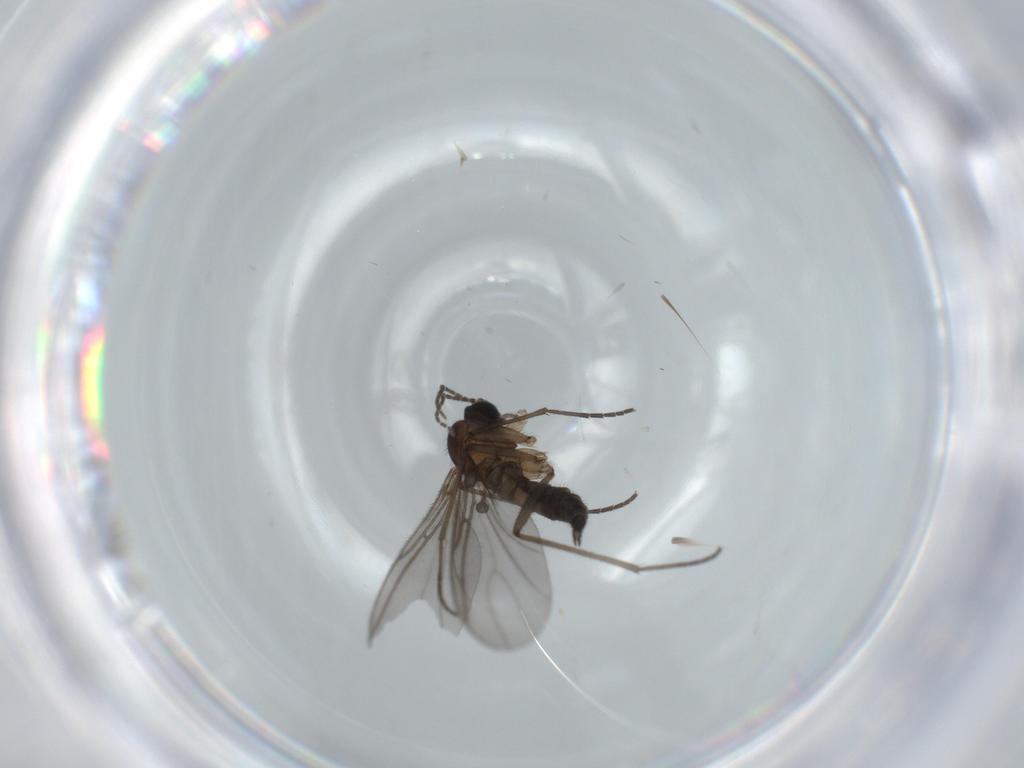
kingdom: Animalia
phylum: Arthropoda
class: Insecta
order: Diptera
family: Sciaridae
